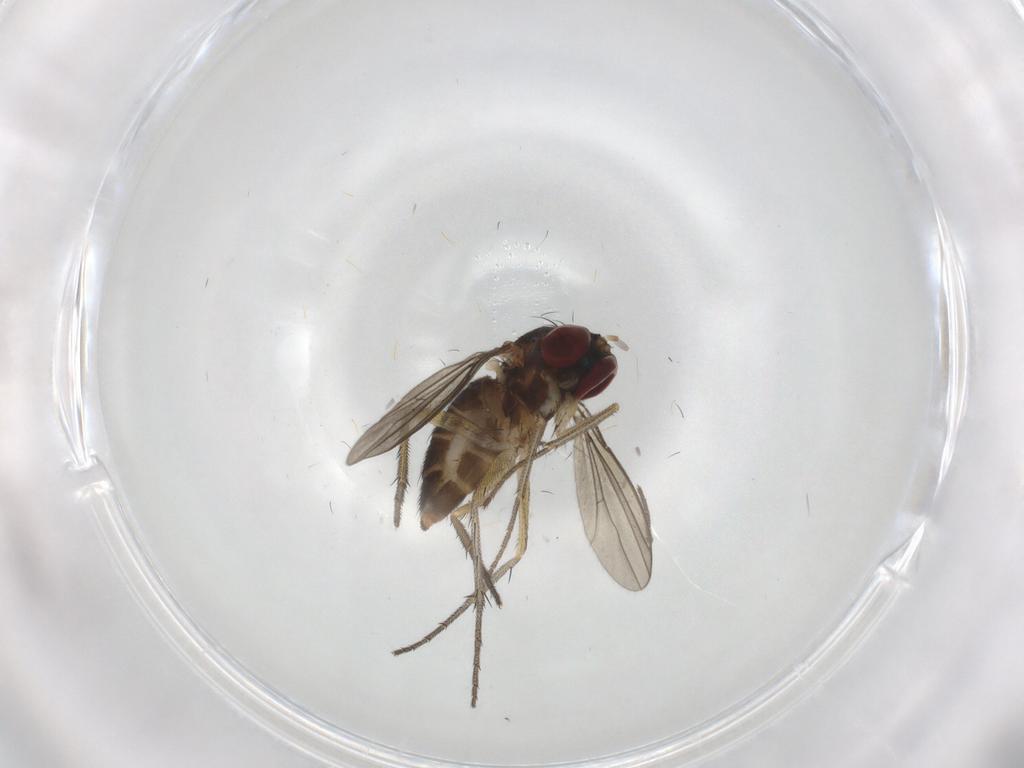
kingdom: Animalia
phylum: Arthropoda
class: Insecta
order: Diptera
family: Dolichopodidae
